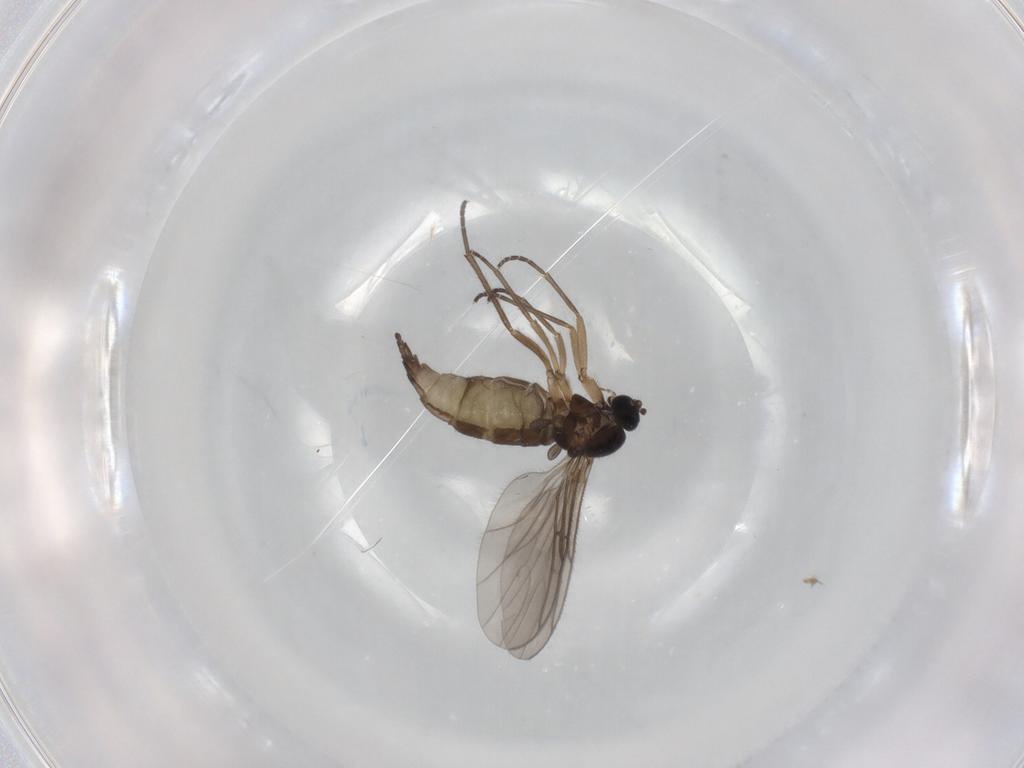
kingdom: Animalia
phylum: Arthropoda
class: Insecta
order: Diptera
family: Sciaridae
